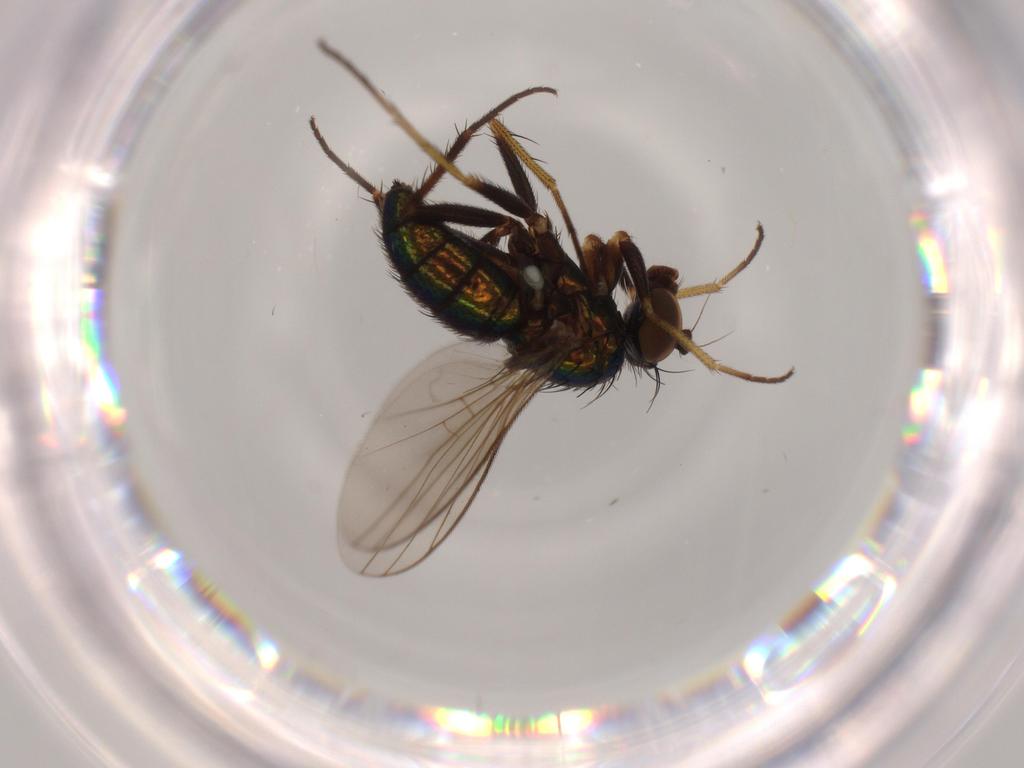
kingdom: Animalia
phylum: Arthropoda
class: Insecta
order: Diptera
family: Dolichopodidae
